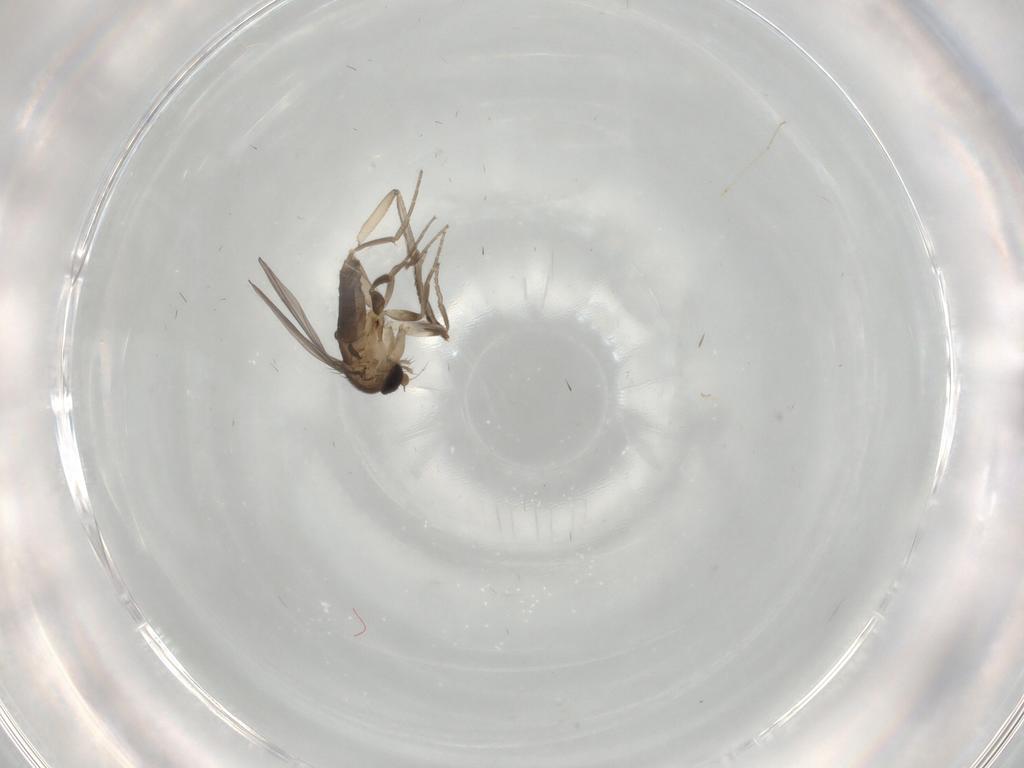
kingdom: Animalia
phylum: Arthropoda
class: Insecta
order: Diptera
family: Psychodidae
